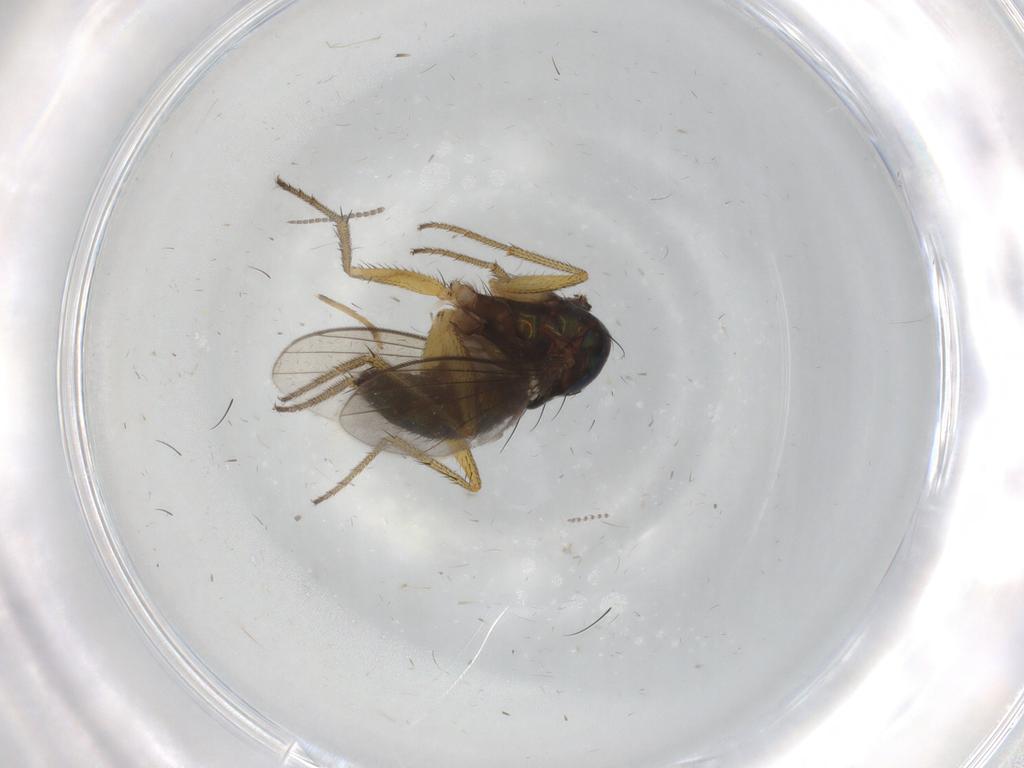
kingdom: Animalia
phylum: Arthropoda
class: Insecta
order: Diptera
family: Psychodidae
